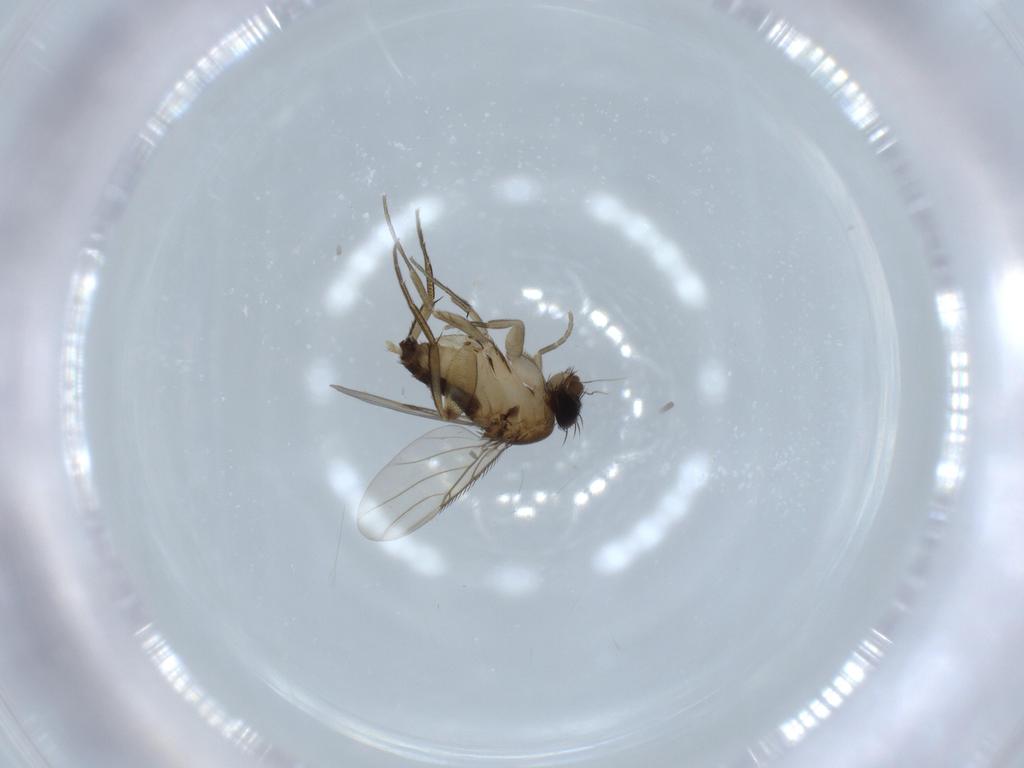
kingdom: Animalia
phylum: Arthropoda
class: Insecta
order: Diptera
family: Phoridae
